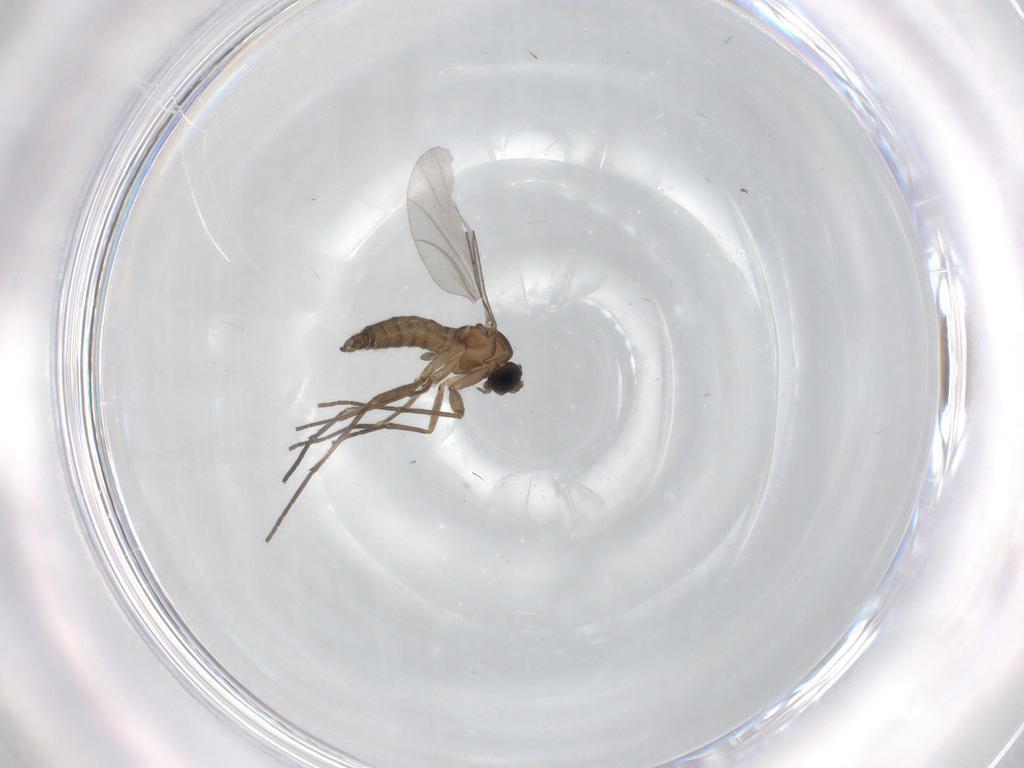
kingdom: Animalia
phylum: Arthropoda
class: Insecta
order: Diptera
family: Sciaridae
